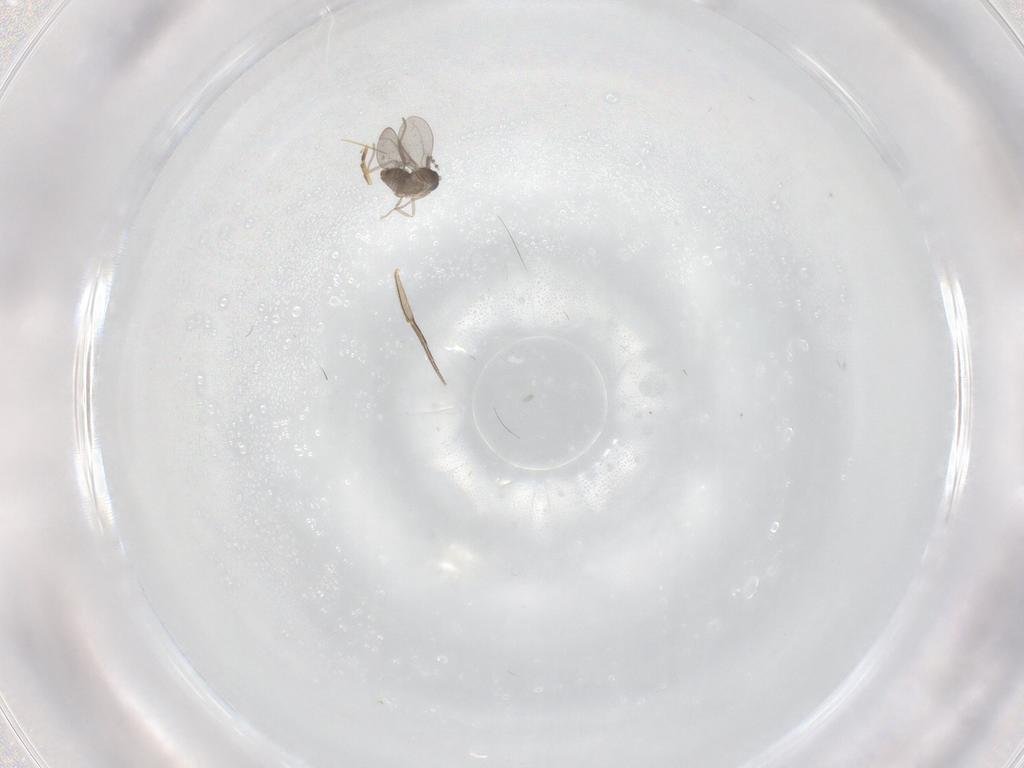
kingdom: Animalia
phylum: Arthropoda
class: Insecta
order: Diptera
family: Cecidomyiidae
